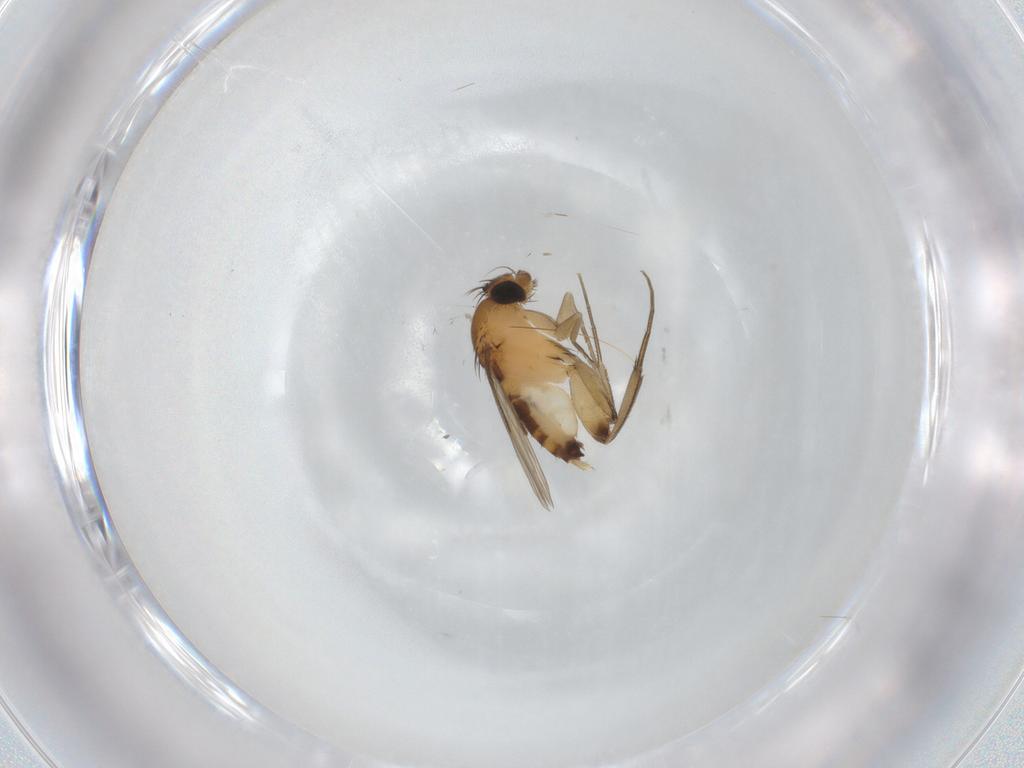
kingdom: Animalia
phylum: Arthropoda
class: Insecta
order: Diptera
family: Phoridae
